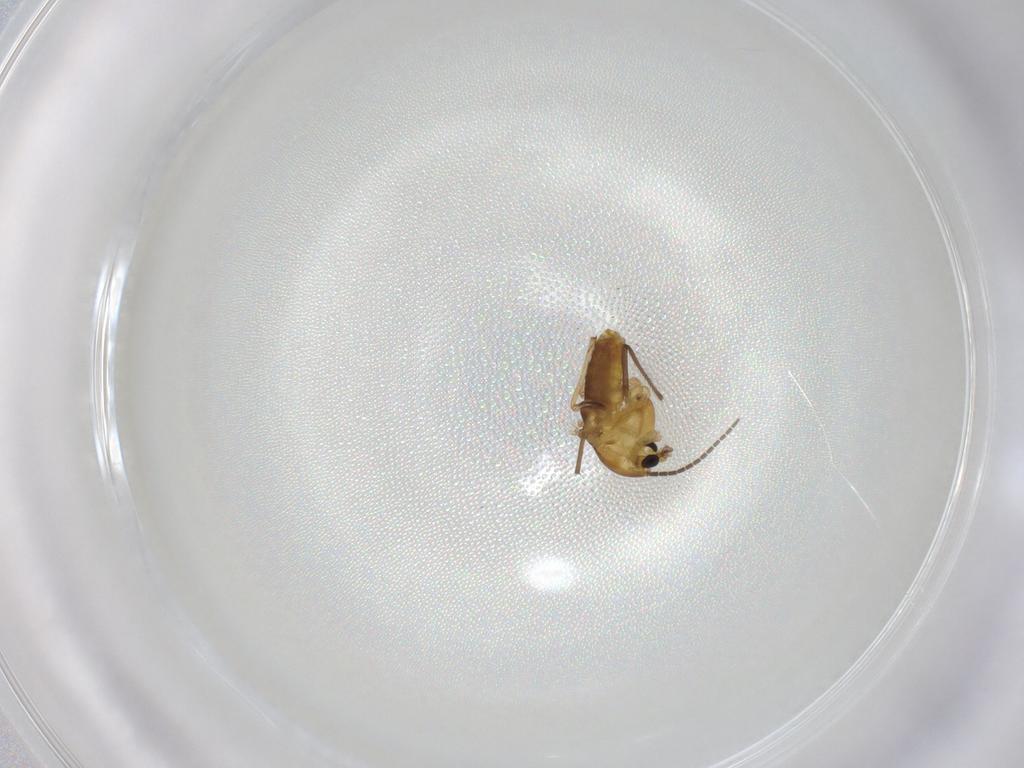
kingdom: Animalia
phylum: Arthropoda
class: Insecta
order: Diptera
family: Chironomidae
